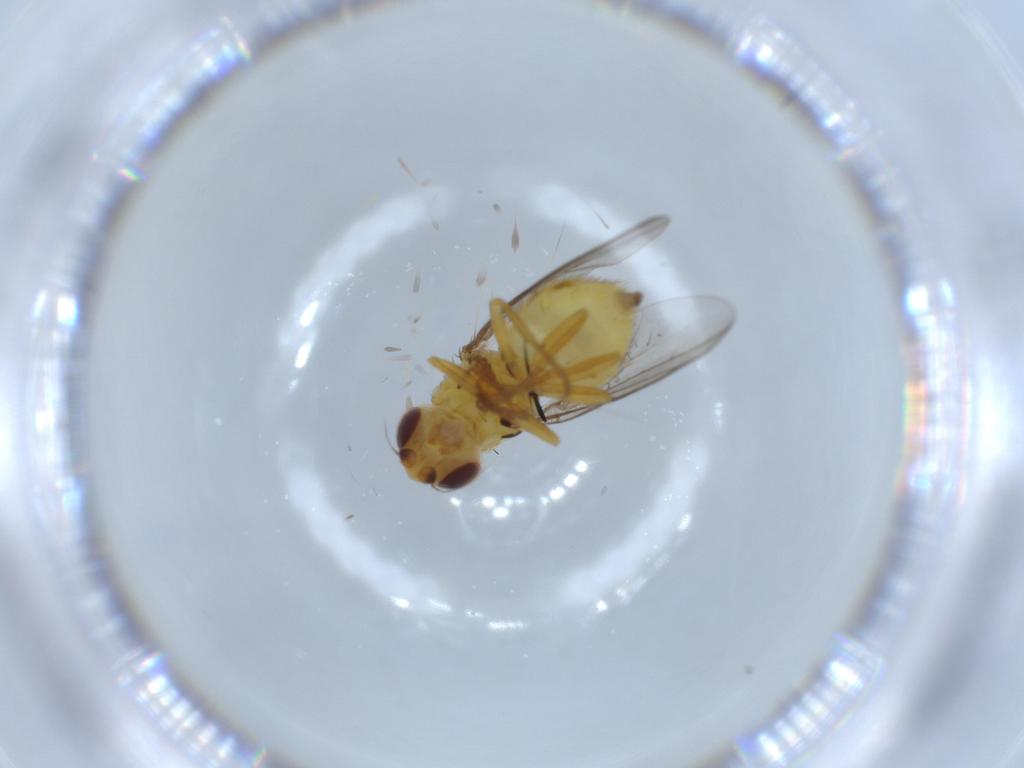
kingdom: Animalia
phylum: Arthropoda
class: Insecta
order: Diptera
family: Chloropidae
